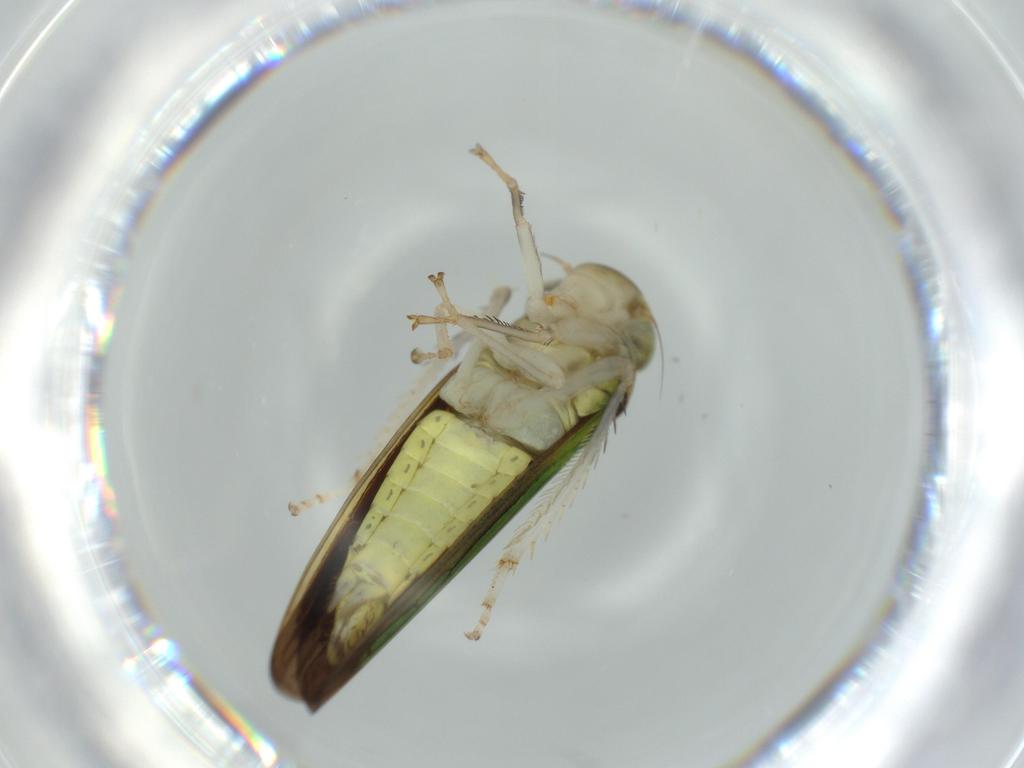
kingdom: Animalia
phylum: Arthropoda
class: Insecta
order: Hemiptera
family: Cicadellidae
